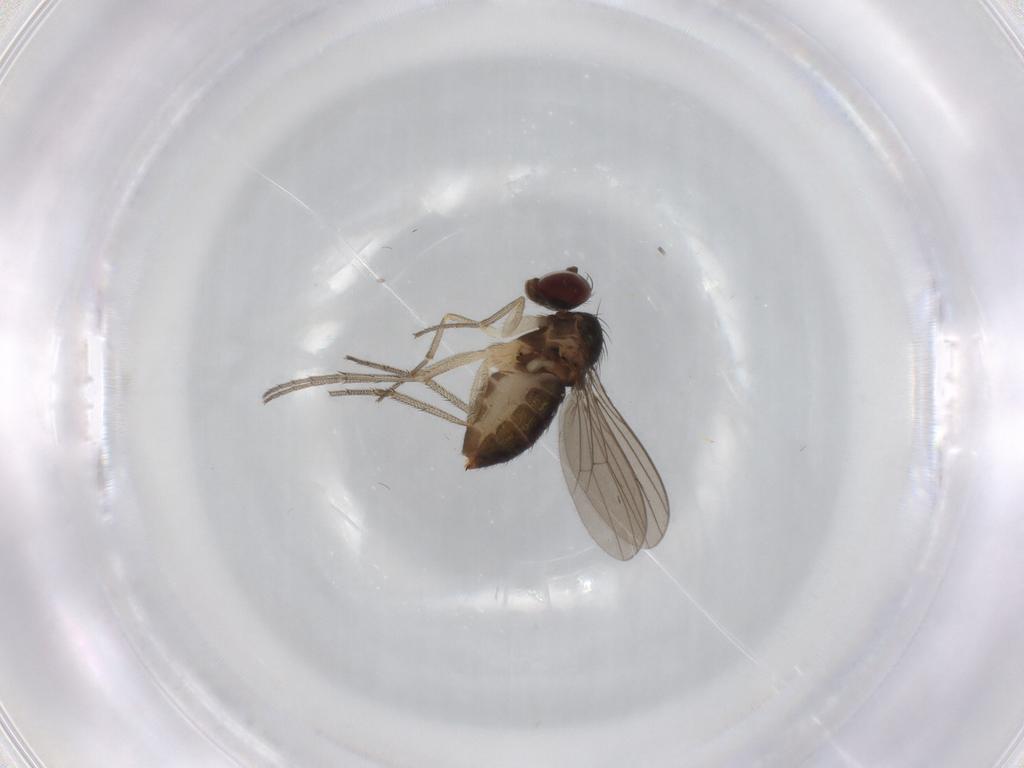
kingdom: Animalia
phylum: Arthropoda
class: Insecta
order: Diptera
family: Dolichopodidae
